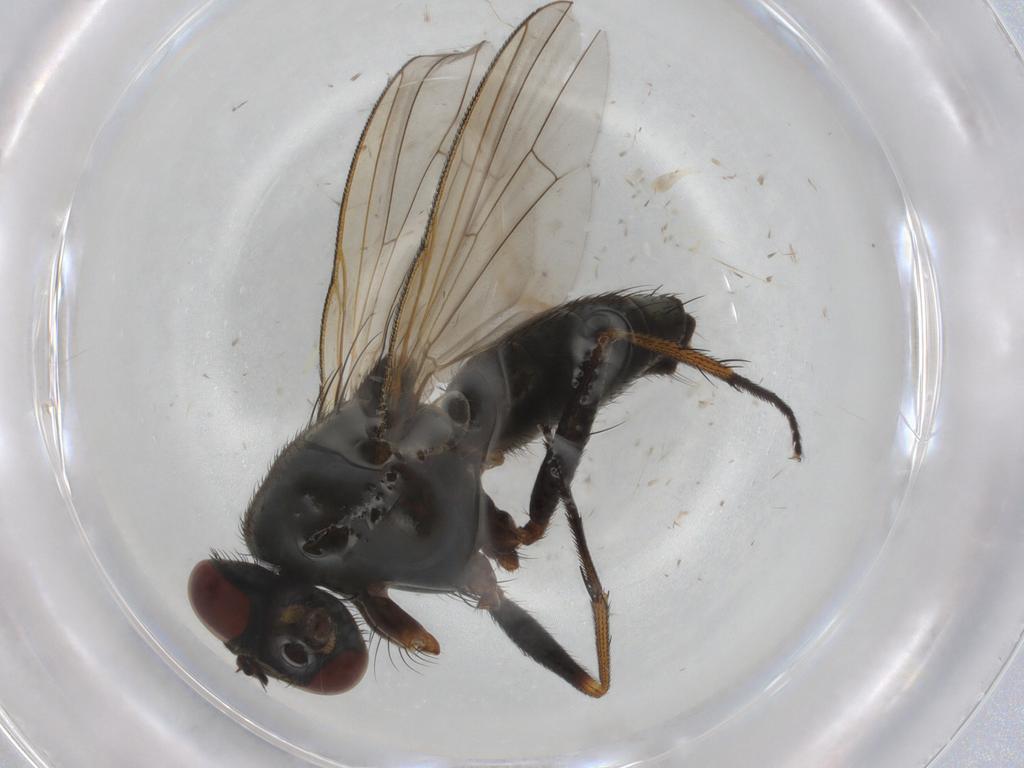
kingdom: Animalia
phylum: Arthropoda
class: Insecta
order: Diptera
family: Muscidae
